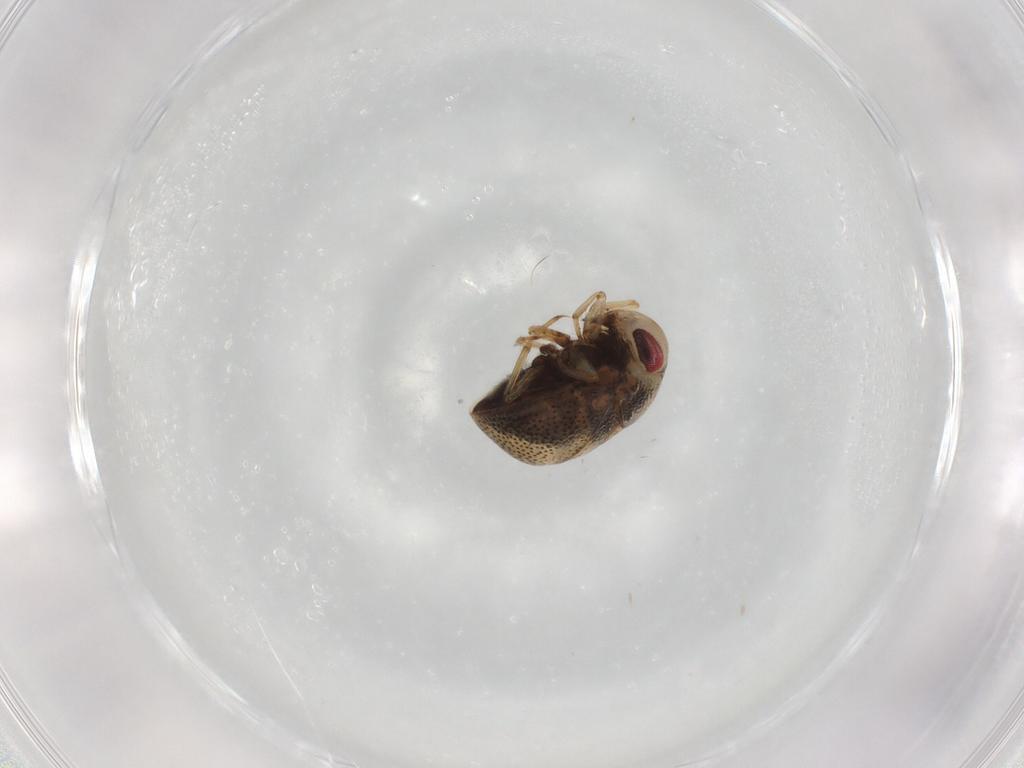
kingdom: Animalia
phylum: Arthropoda
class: Insecta
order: Hemiptera
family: Pleidae
